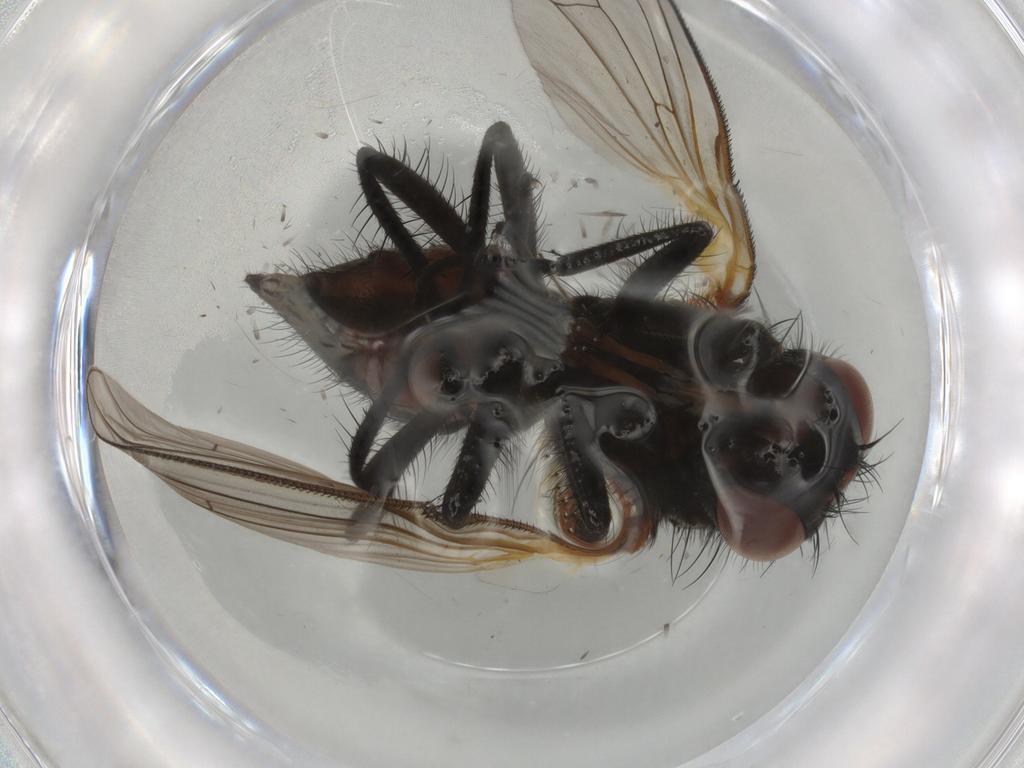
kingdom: Animalia
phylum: Arthropoda
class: Insecta
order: Diptera
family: Anthomyiidae
